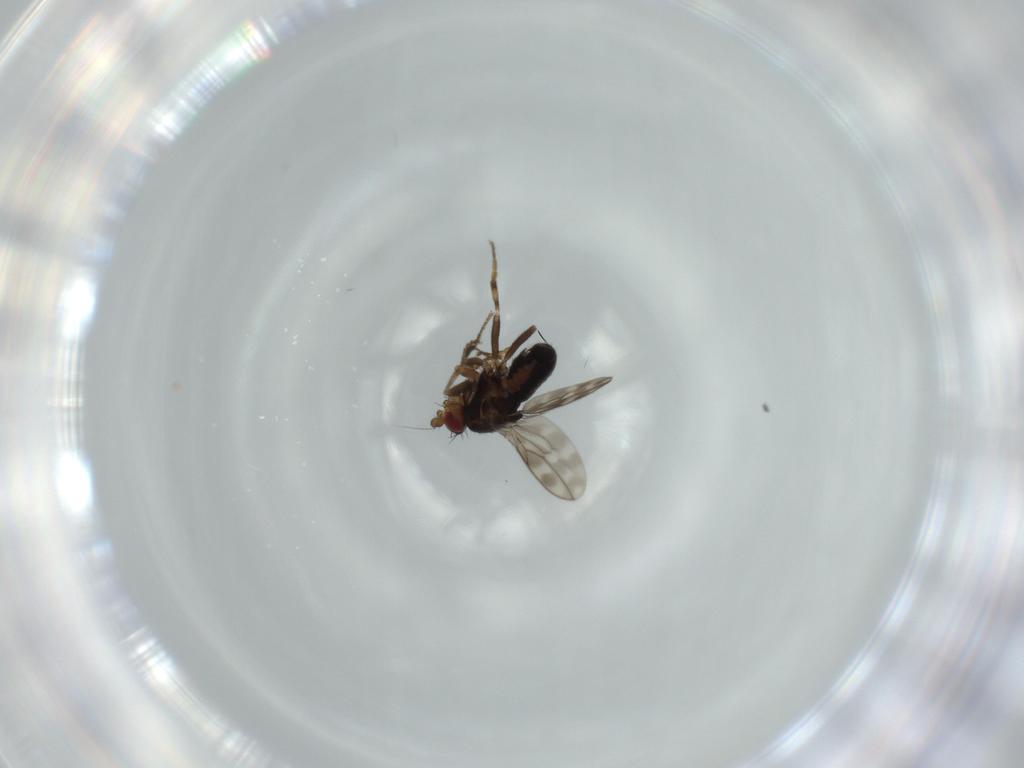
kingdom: Animalia
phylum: Arthropoda
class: Insecta
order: Diptera
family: Sphaeroceridae
